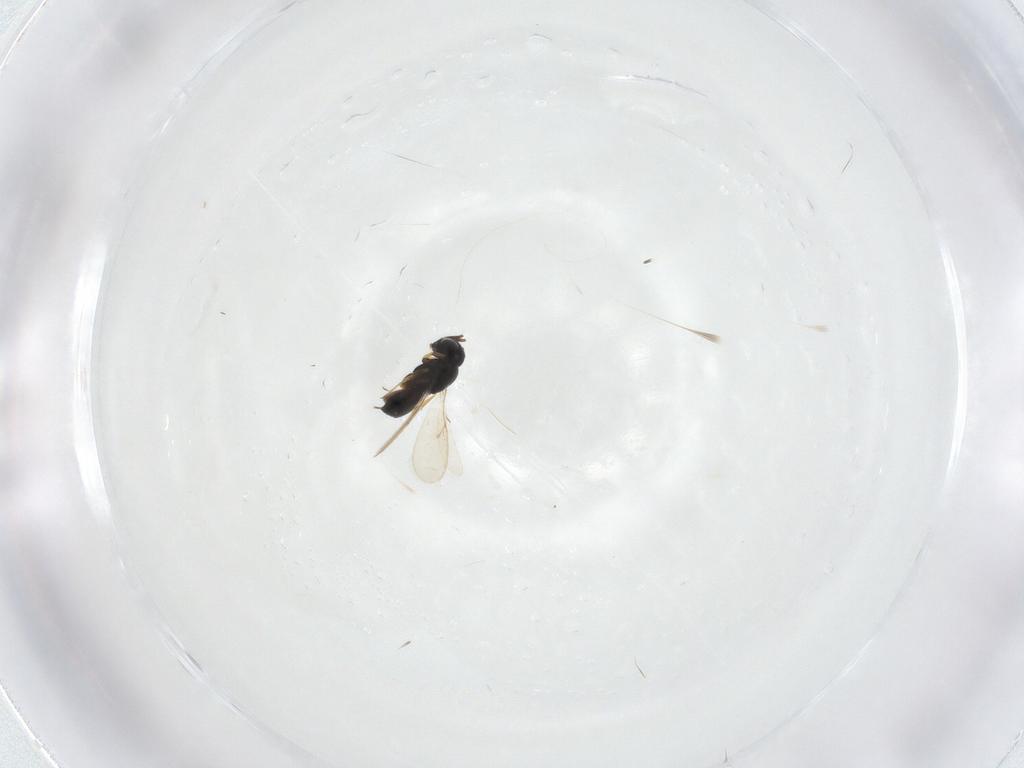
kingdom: Animalia
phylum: Arthropoda
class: Insecta
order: Hymenoptera
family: Scelionidae
